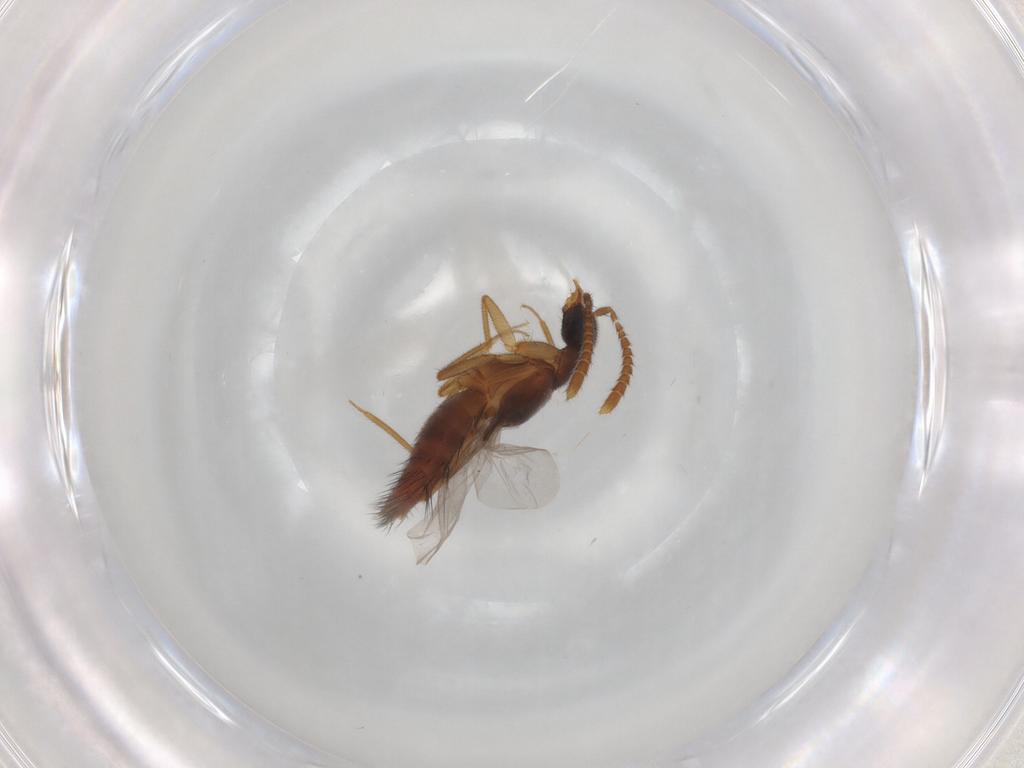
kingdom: Animalia
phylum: Arthropoda
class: Insecta
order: Coleoptera
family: Staphylinidae
